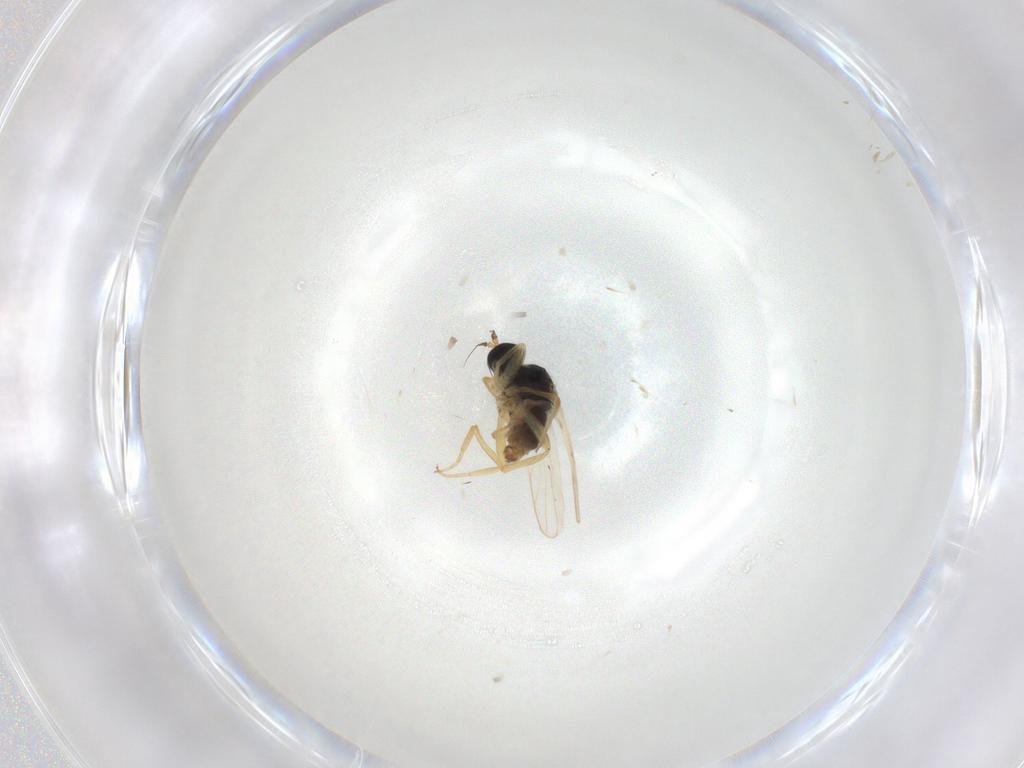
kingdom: Animalia
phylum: Arthropoda
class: Insecta
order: Diptera
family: Hybotidae
